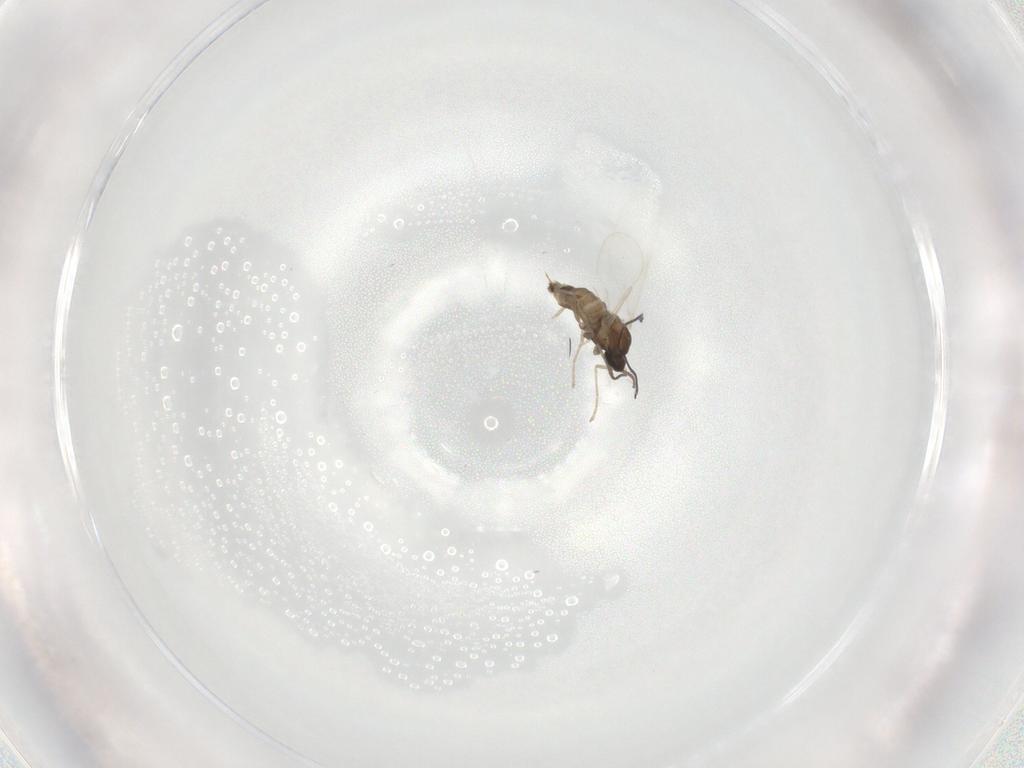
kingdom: Animalia
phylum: Arthropoda
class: Insecta
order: Diptera
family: Cecidomyiidae
